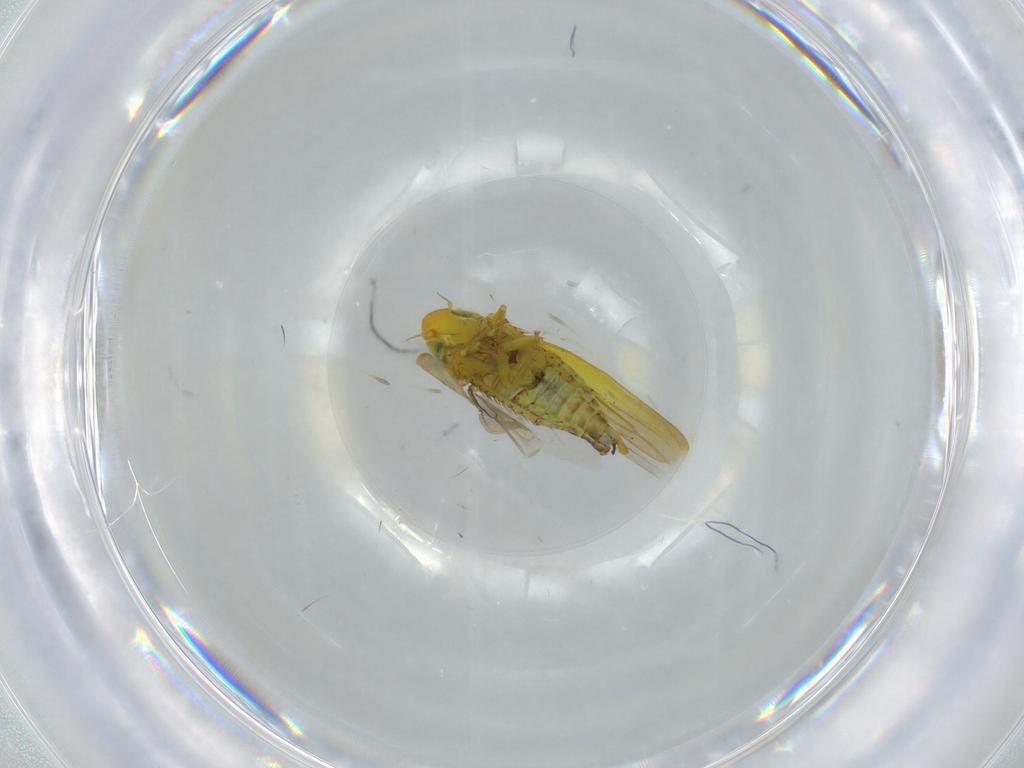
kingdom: Animalia
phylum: Arthropoda
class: Insecta
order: Hemiptera
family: Cicadellidae
